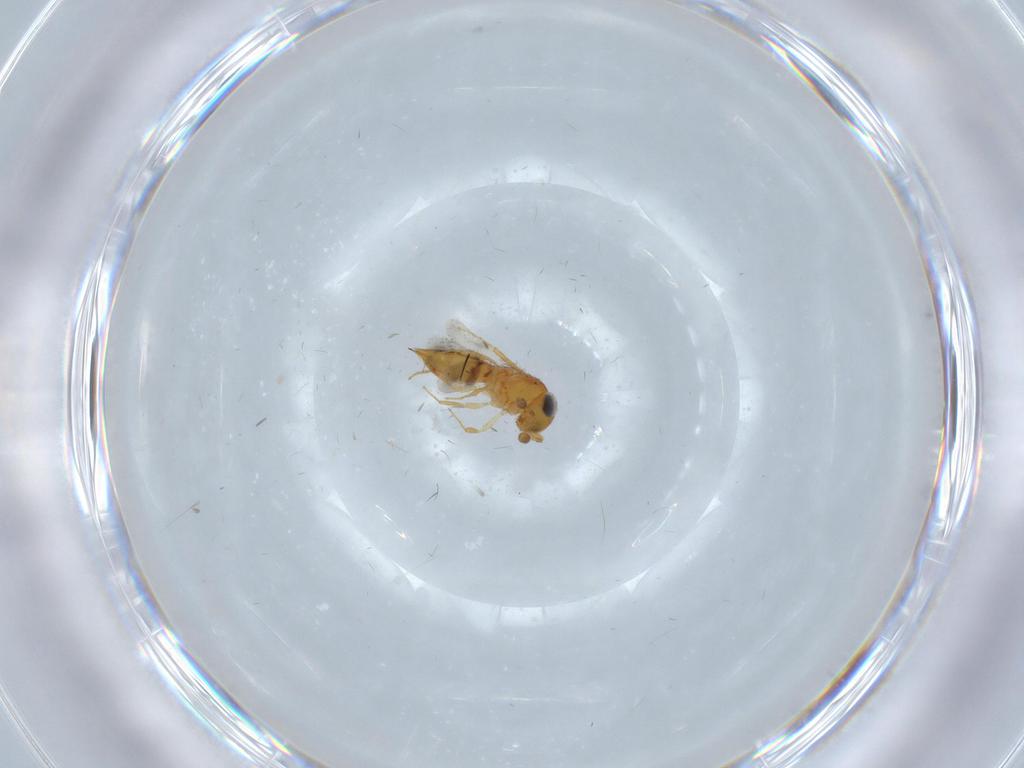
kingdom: Animalia
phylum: Arthropoda
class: Insecta
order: Hymenoptera
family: Scelionidae
